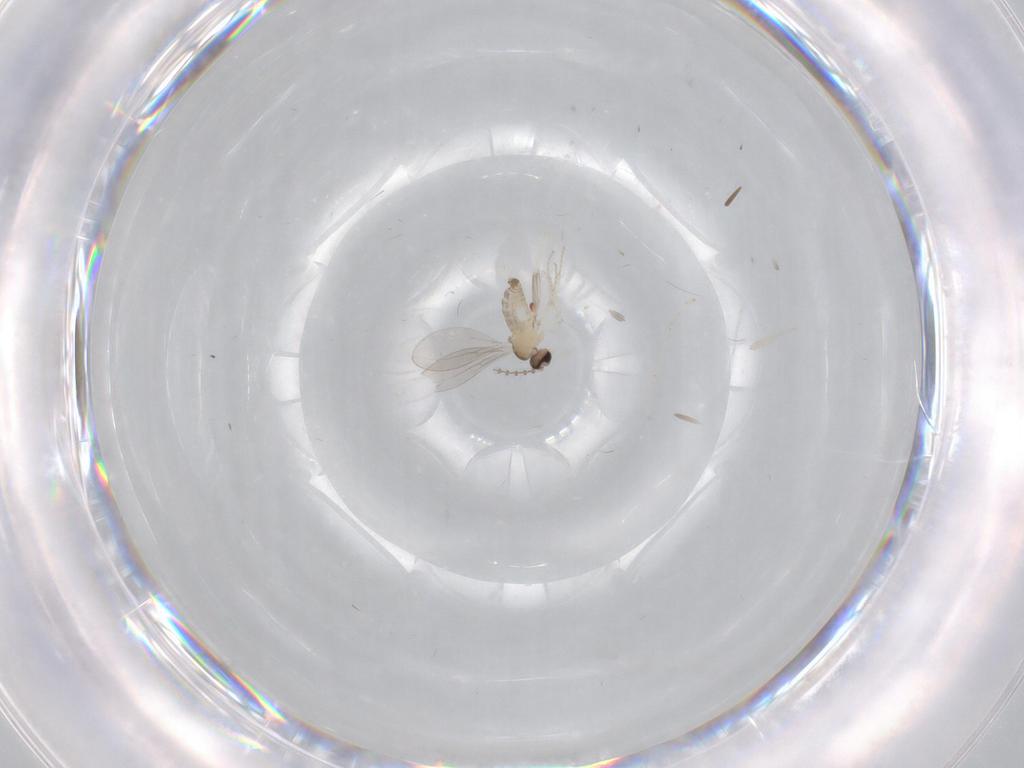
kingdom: Animalia
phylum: Arthropoda
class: Insecta
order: Diptera
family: Cecidomyiidae
